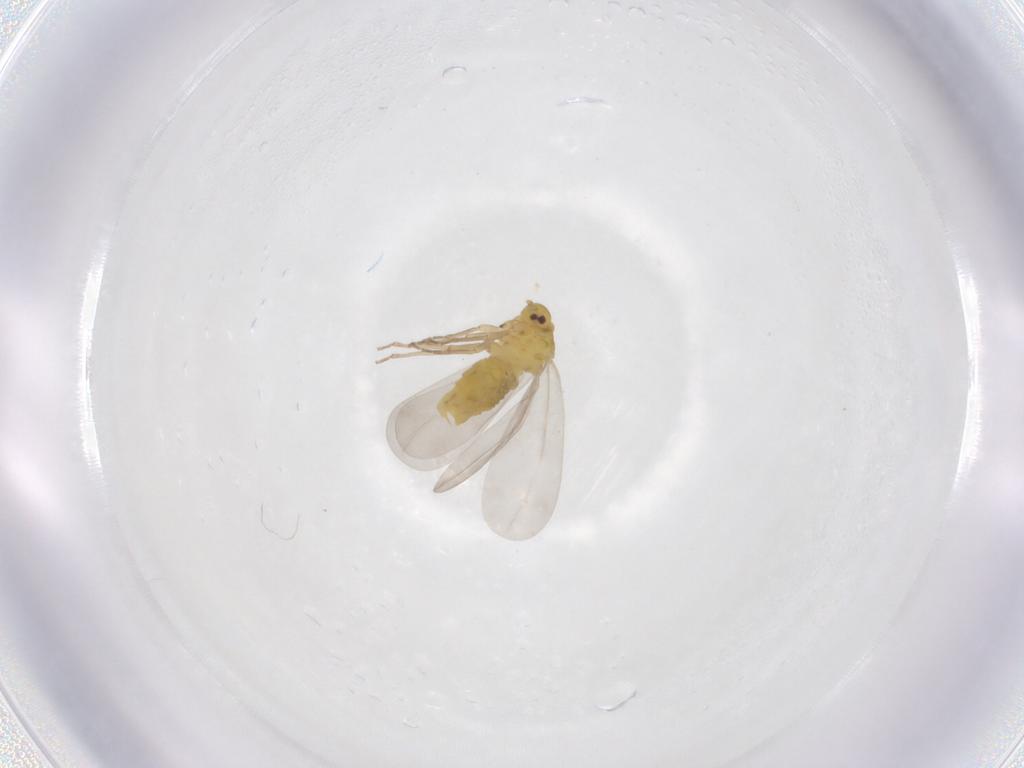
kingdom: Animalia
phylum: Arthropoda
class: Insecta
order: Hemiptera
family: Aleyrodidae
